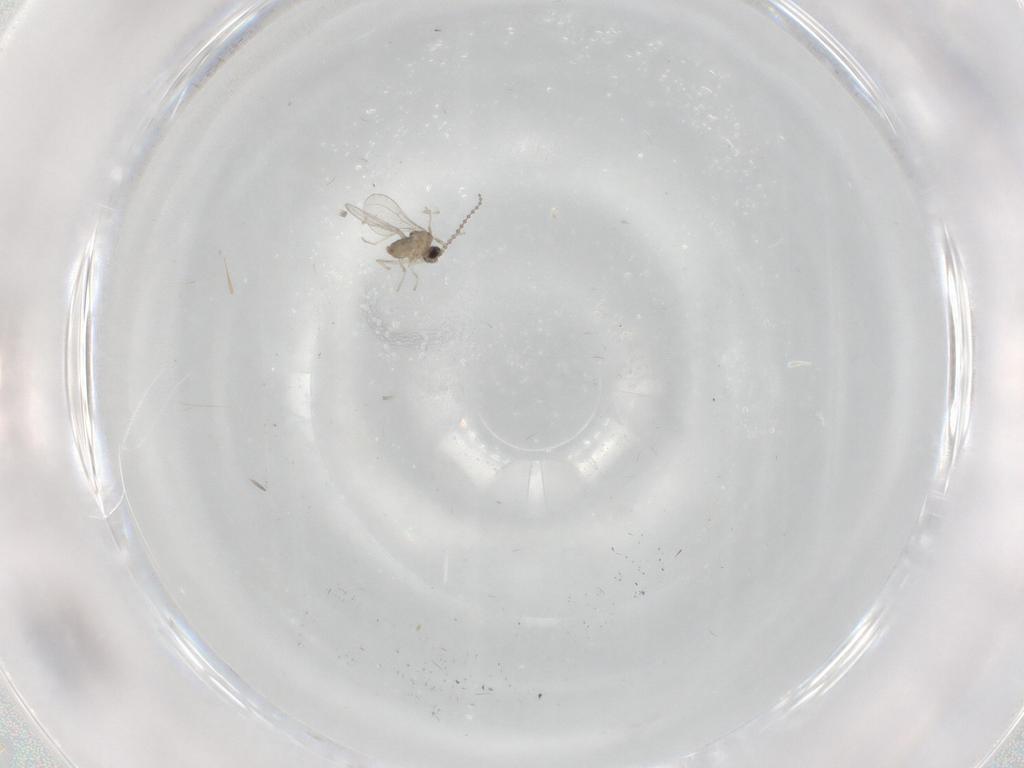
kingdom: Animalia
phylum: Arthropoda
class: Insecta
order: Diptera
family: Cecidomyiidae
